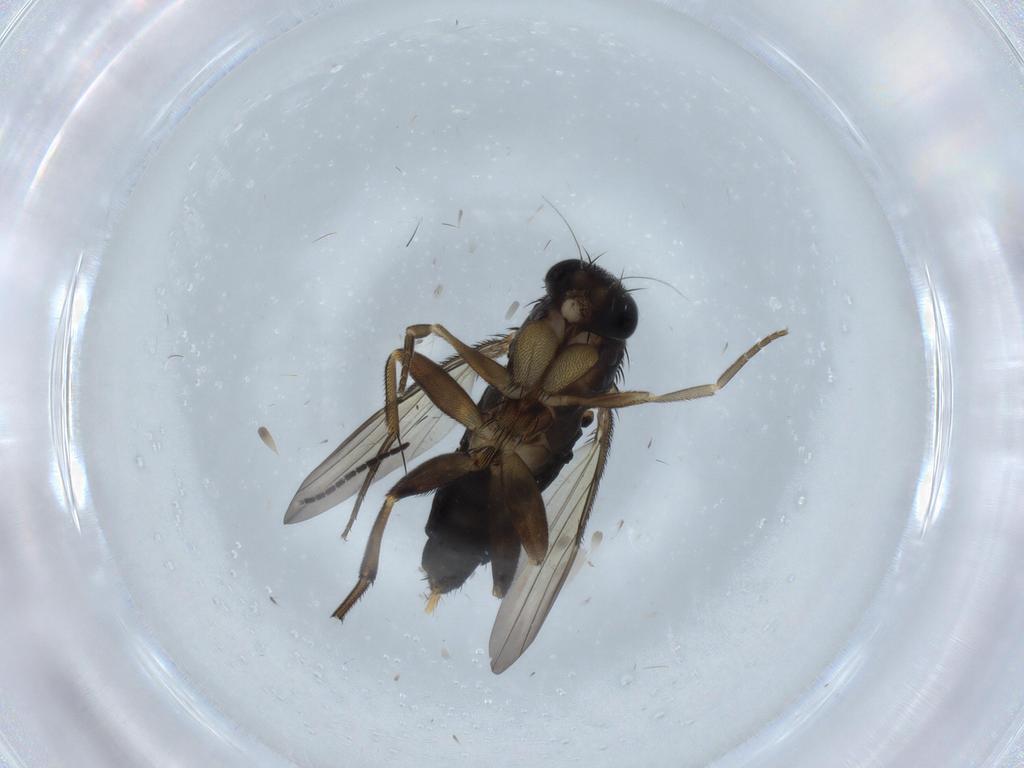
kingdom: Animalia
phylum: Arthropoda
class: Insecta
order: Diptera
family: Phoridae
